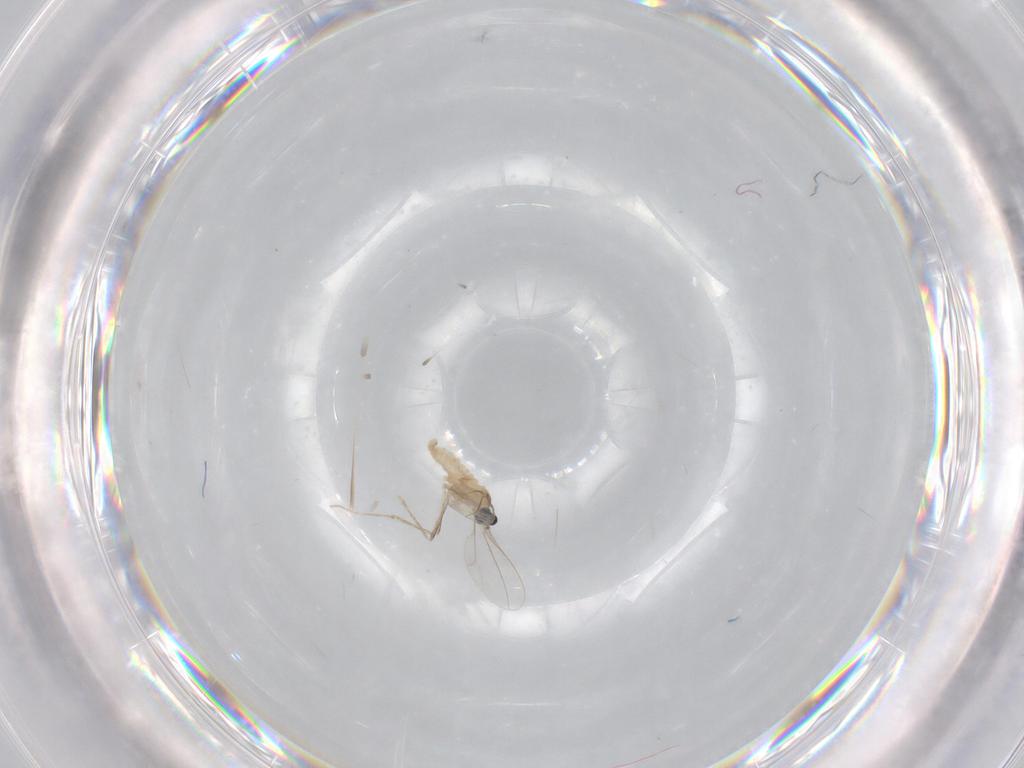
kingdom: Animalia
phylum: Arthropoda
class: Insecta
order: Diptera
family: Cecidomyiidae
